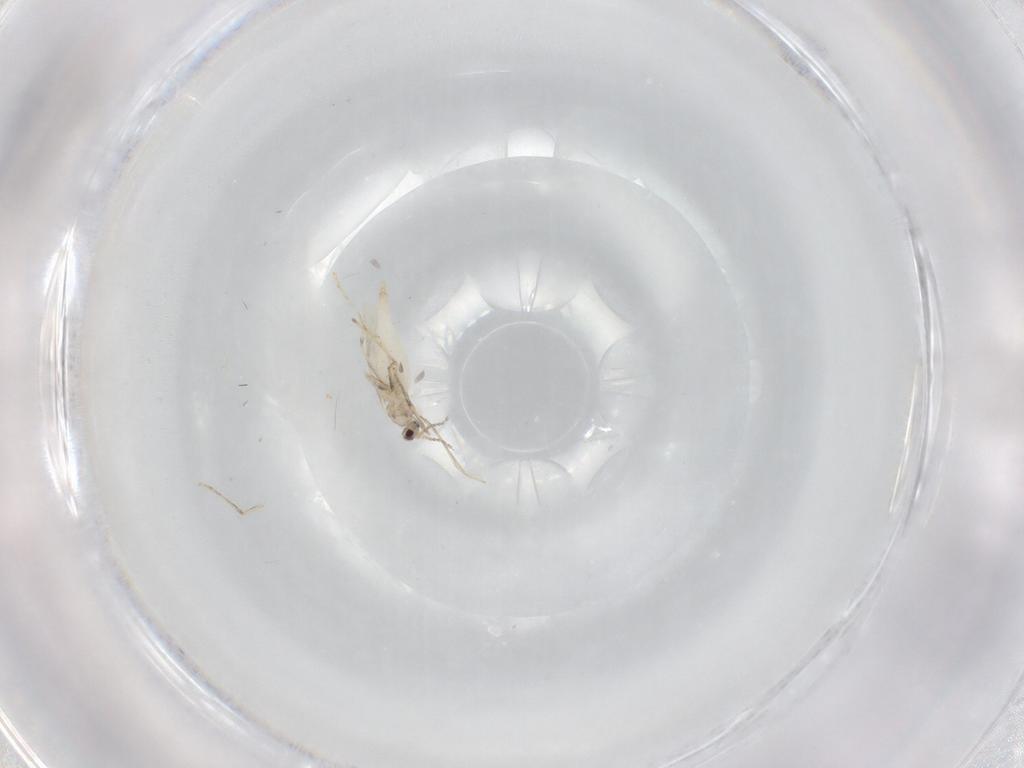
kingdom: Animalia
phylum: Arthropoda
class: Insecta
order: Diptera
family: Cecidomyiidae
